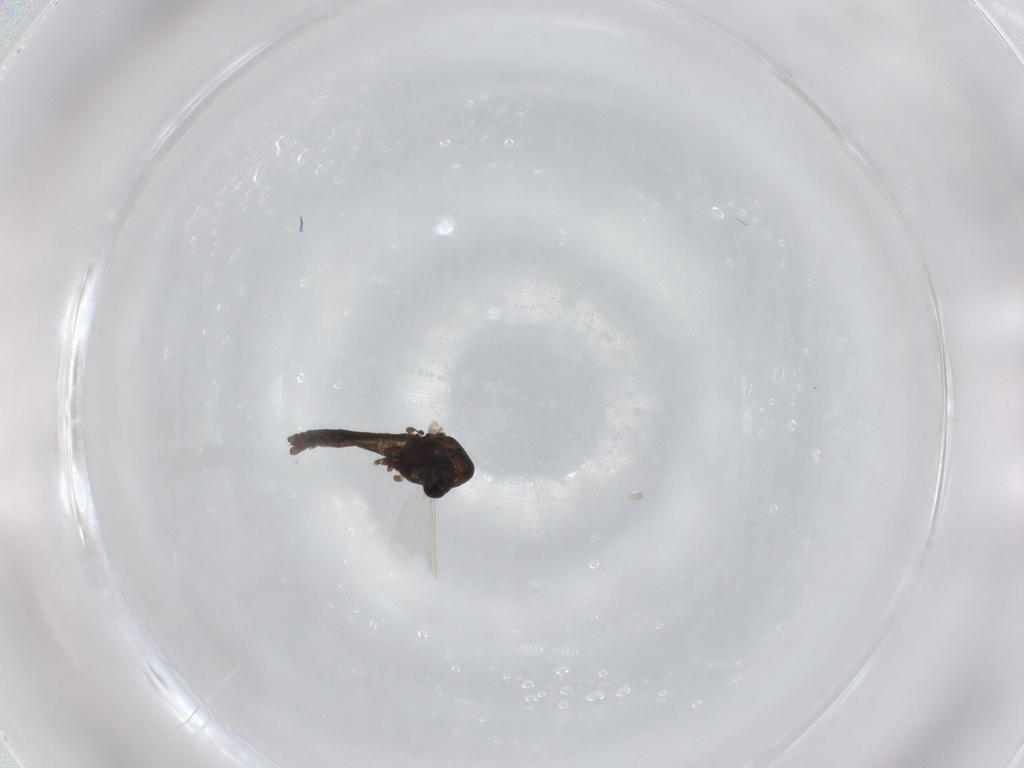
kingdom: Animalia
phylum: Arthropoda
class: Insecta
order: Diptera
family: Chironomidae
